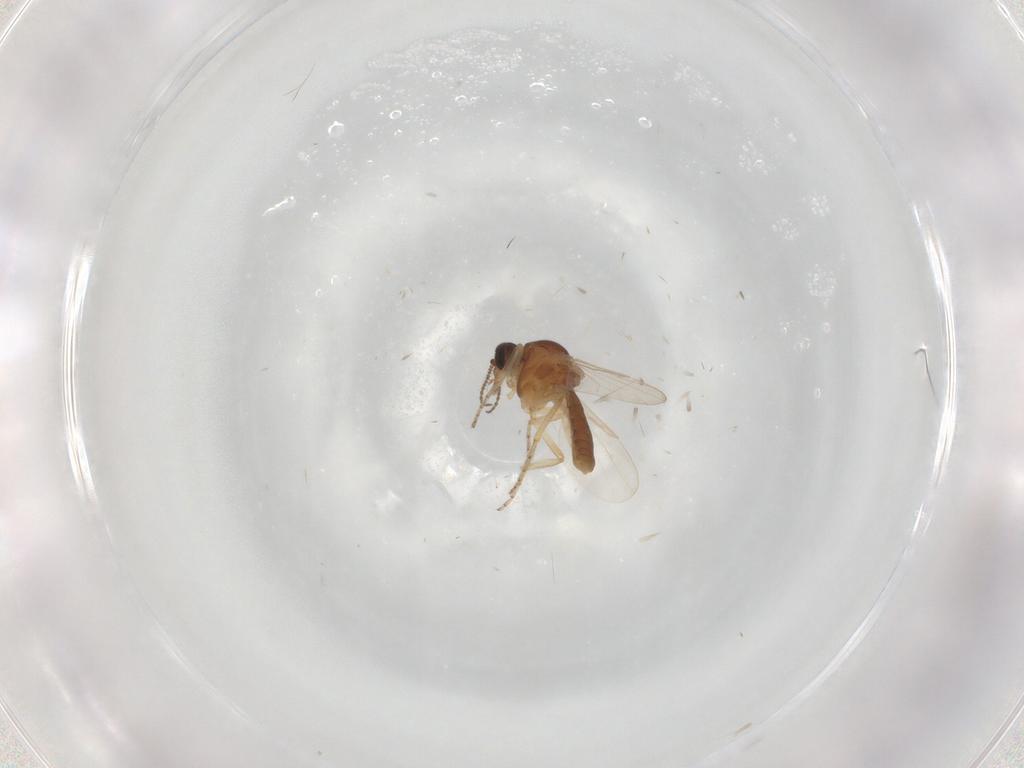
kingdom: Animalia
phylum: Arthropoda
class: Insecta
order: Diptera
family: Ceratopogonidae
